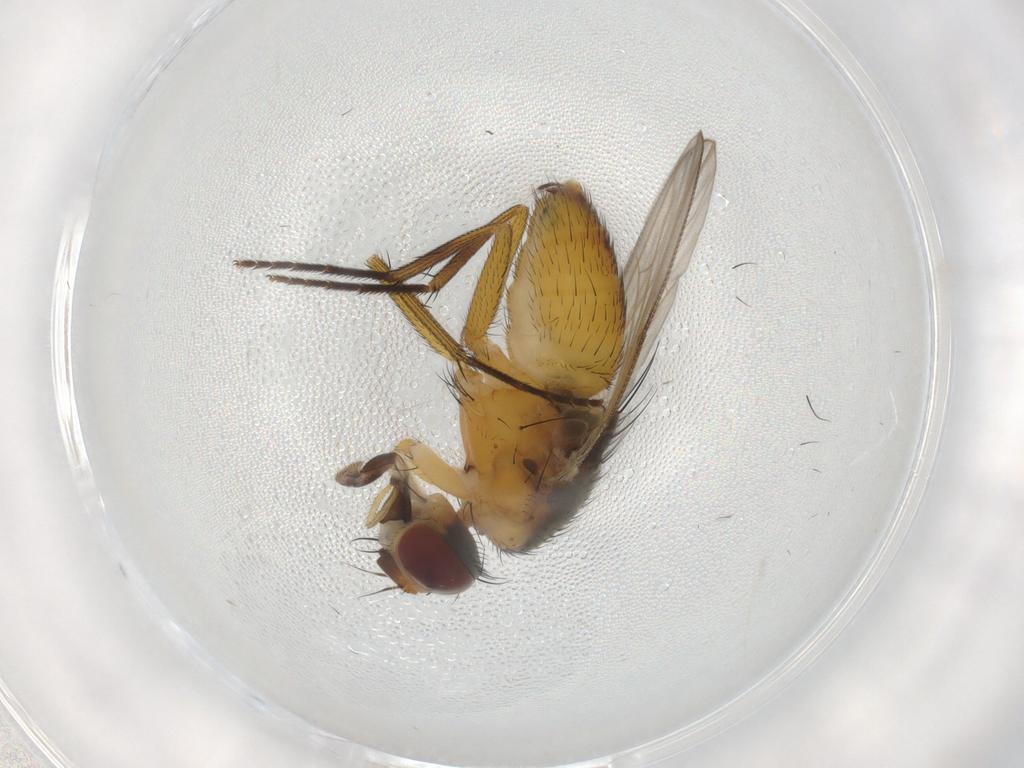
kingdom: Animalia
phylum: Arthropoda
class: Insecta
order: Diptera
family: Muscidae
